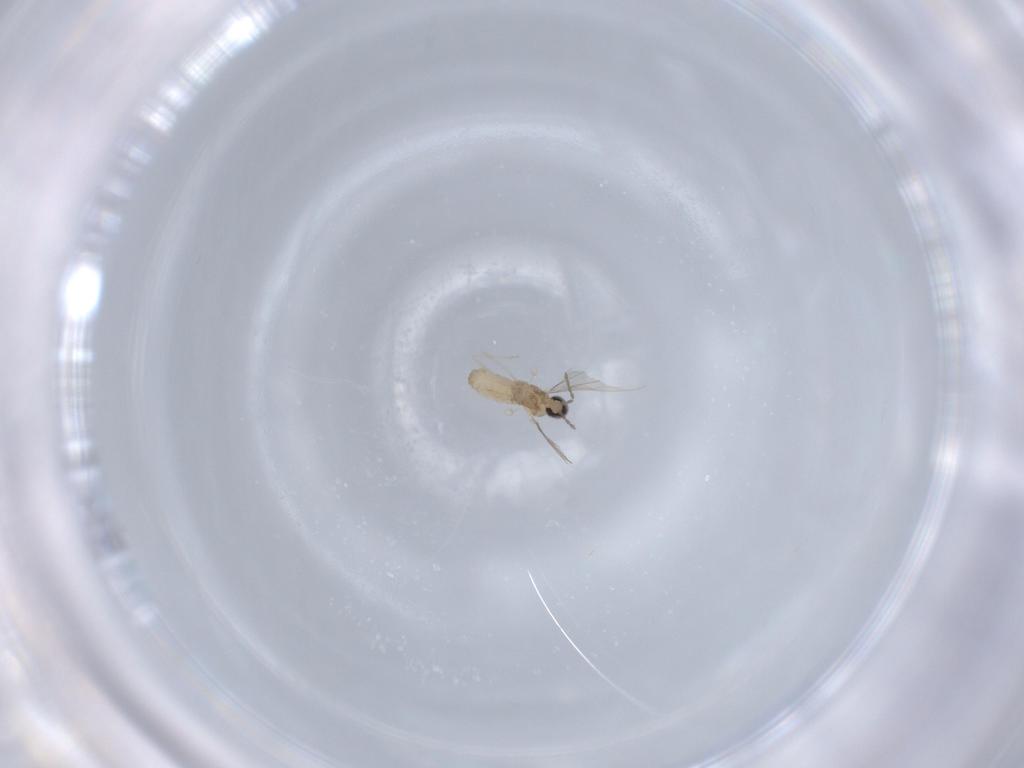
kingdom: Animalia
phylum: Arthropoda
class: Insecta
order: Diptera
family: Cecidomyiidae
